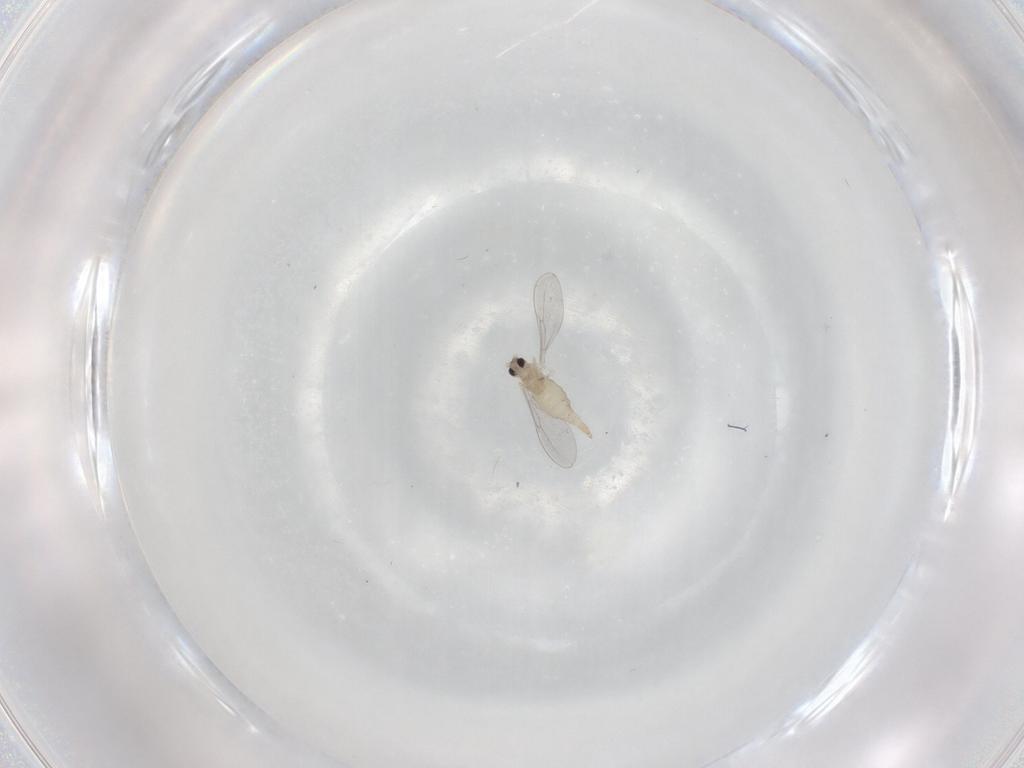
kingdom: Animalia
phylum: Arthropoda
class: Insecta
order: Diptera
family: Cecidomyiidae
